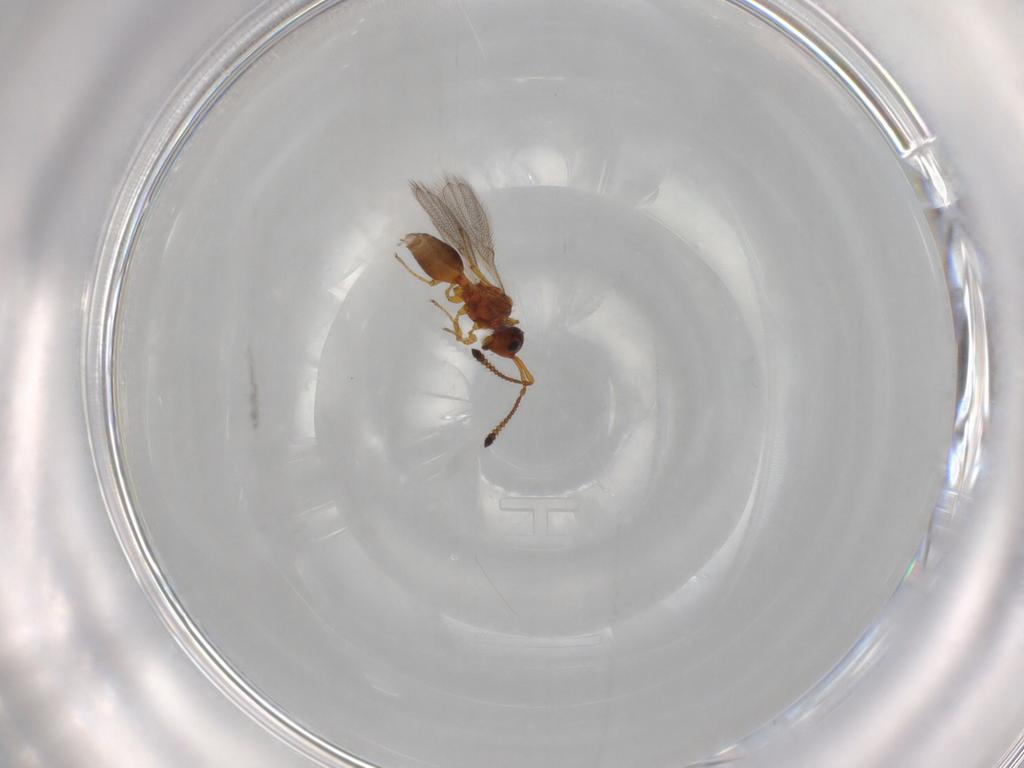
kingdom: Animalia
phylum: Arthropoda
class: Insecta
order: Hymenoptera
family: Diapriidae
